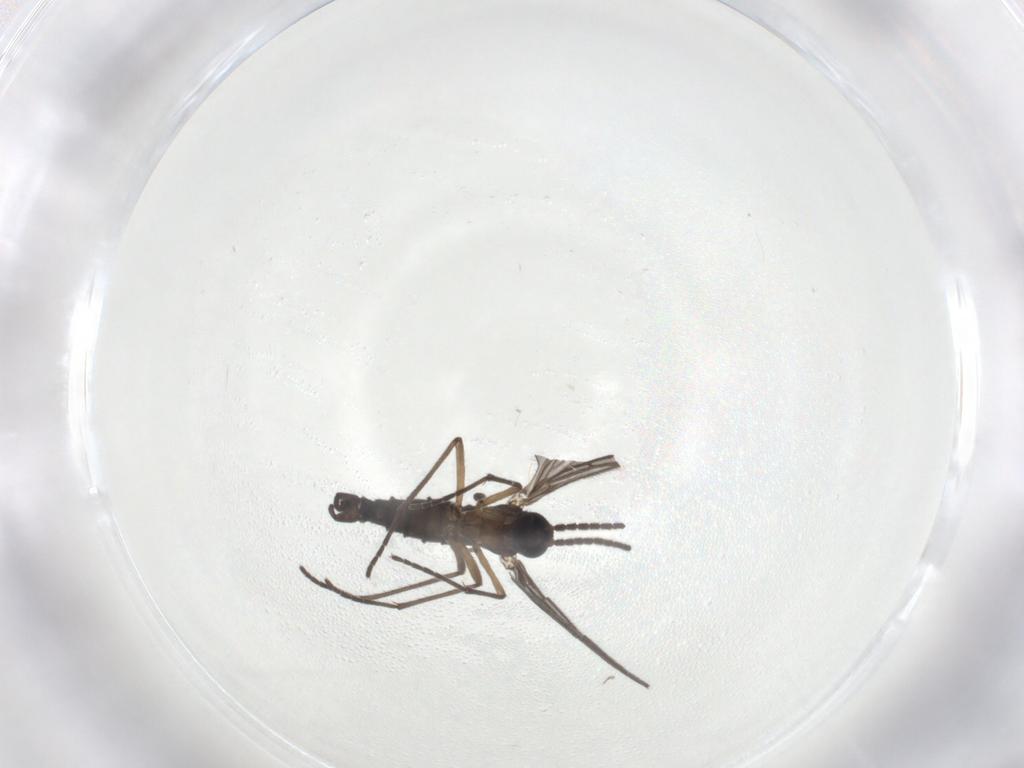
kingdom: Animalia
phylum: Arthropoda
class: Insecta
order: Diptera
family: Sciaridae
